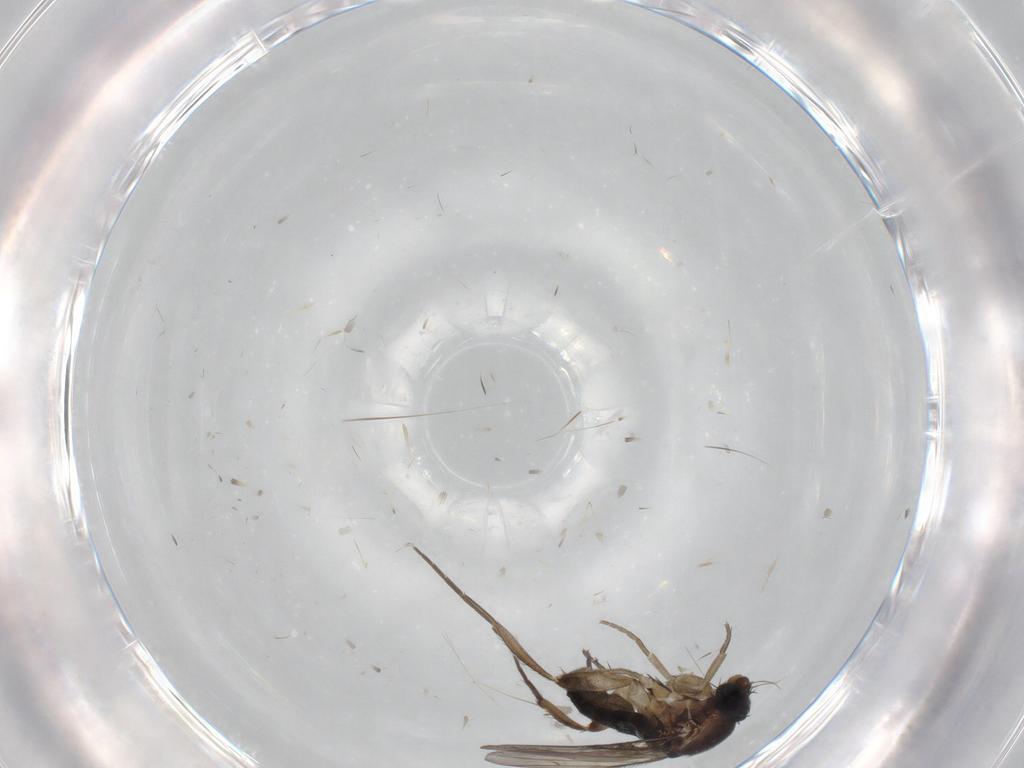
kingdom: Animalia
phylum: Arthropoda
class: Insecta
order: Diptera
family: Phoridae
